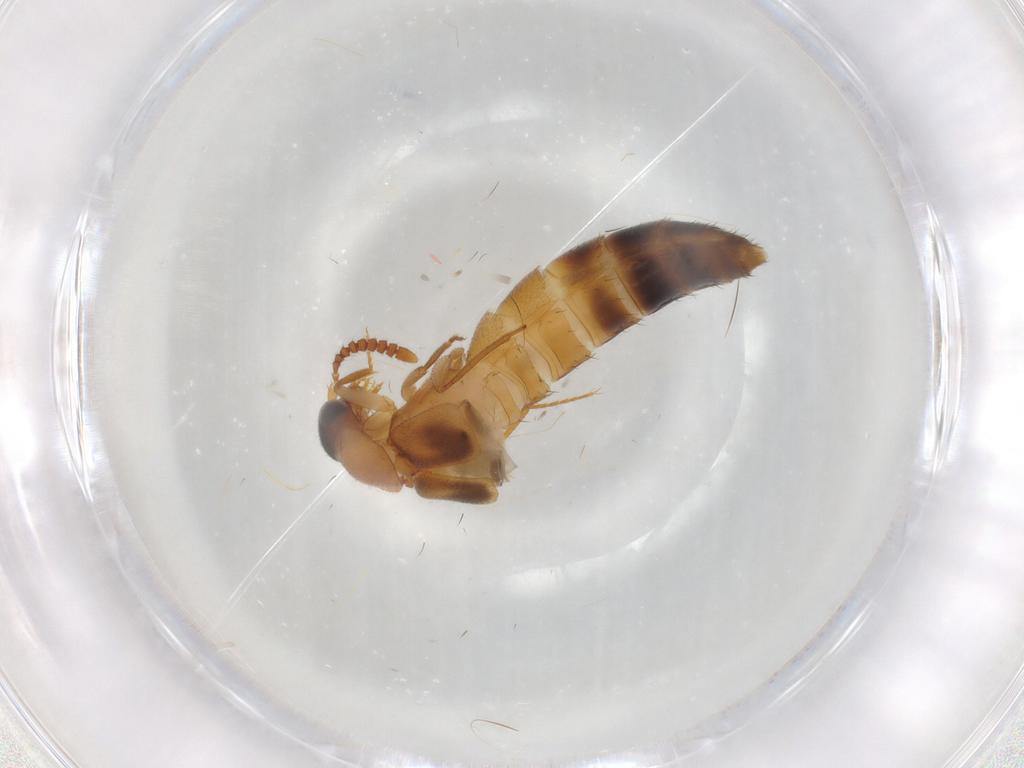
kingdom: Animalia
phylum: Arthropoda
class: Insecta
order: Coleoptera
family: Staphylinidae
